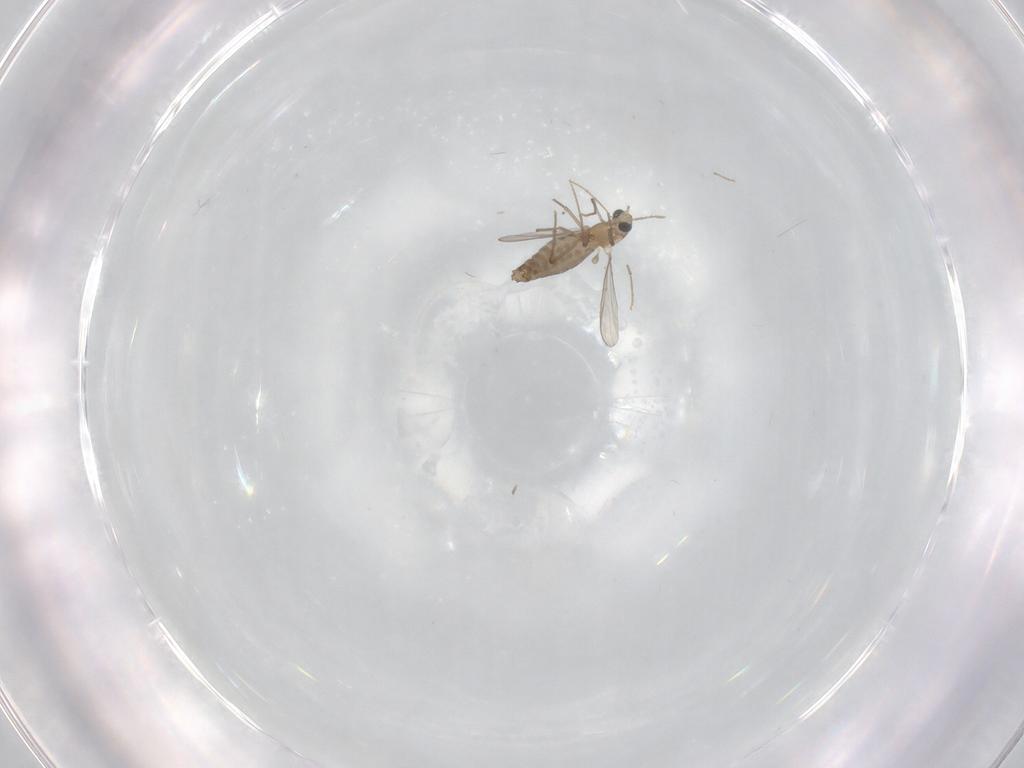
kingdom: Animalia
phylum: Arthropoda
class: Insecta
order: Diptera
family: Chironomidae
